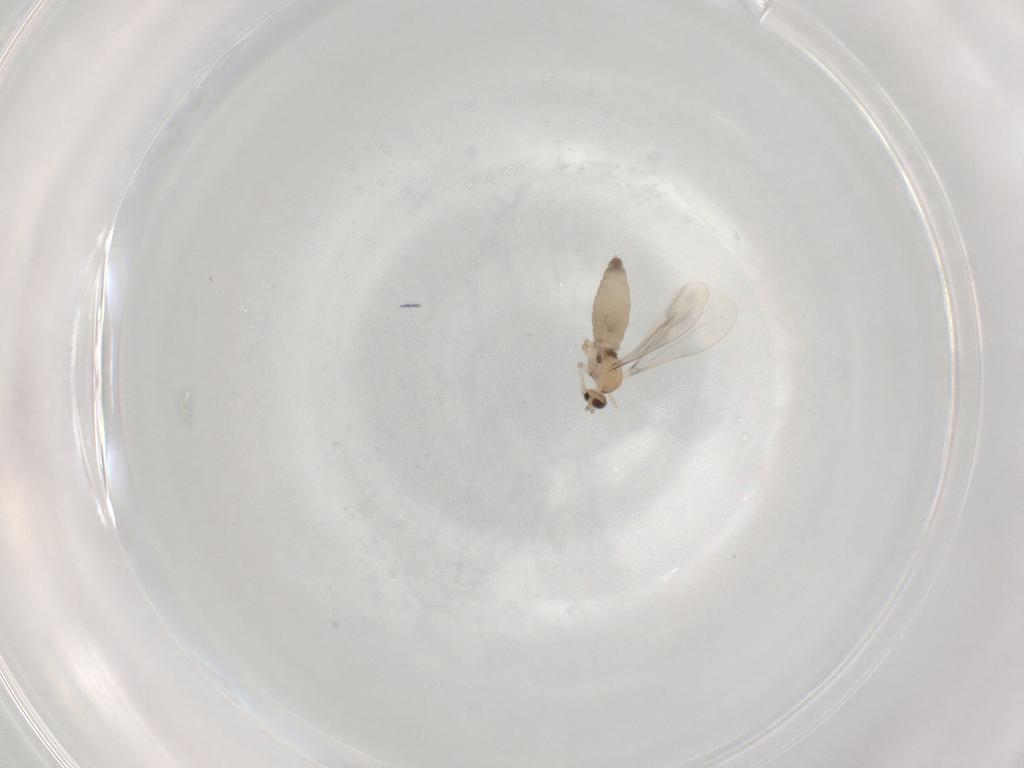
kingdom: Animalia
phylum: Arthropoda
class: Insecta
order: Diptera
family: Cecidomyiidae
